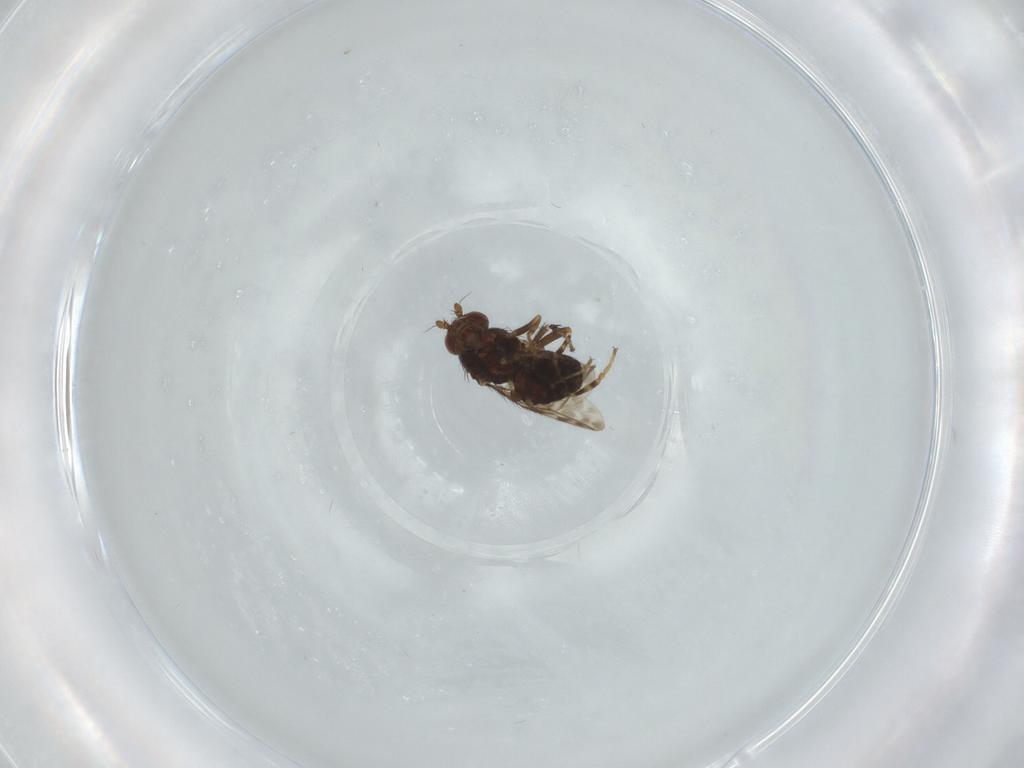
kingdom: Animalia
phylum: Arthropoda
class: Insecta
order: Diptera
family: Sphaeroceridae
